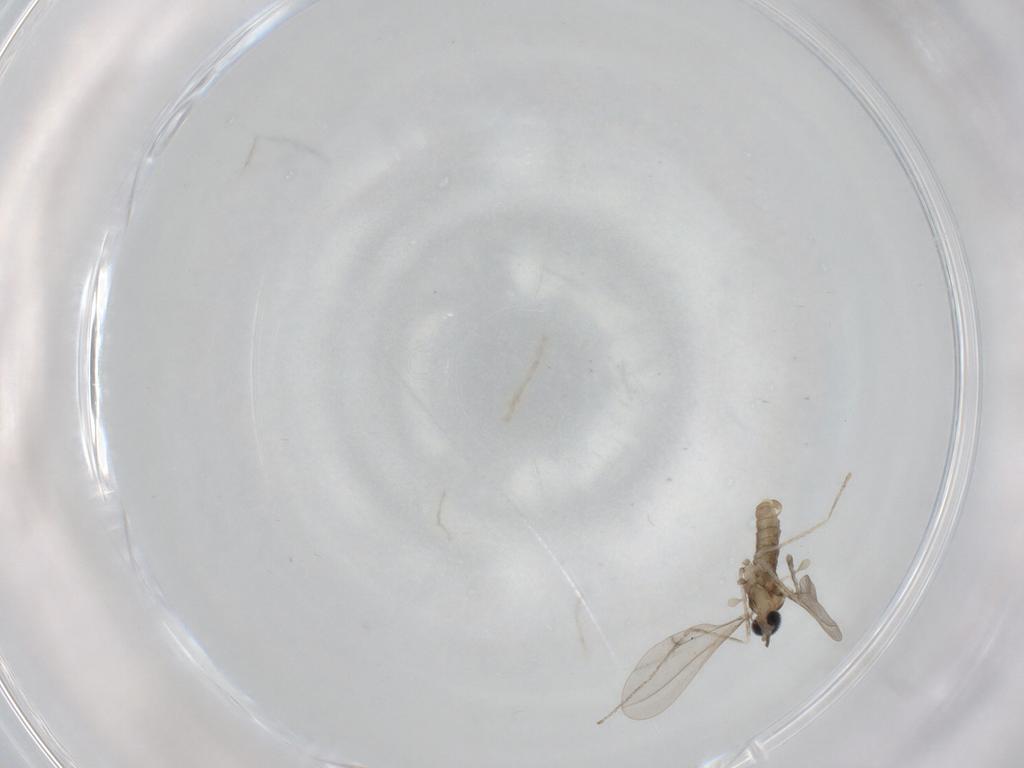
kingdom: Animalia
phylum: Arthropoda
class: Insecta
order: Diptera
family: Cecidomyiidae
